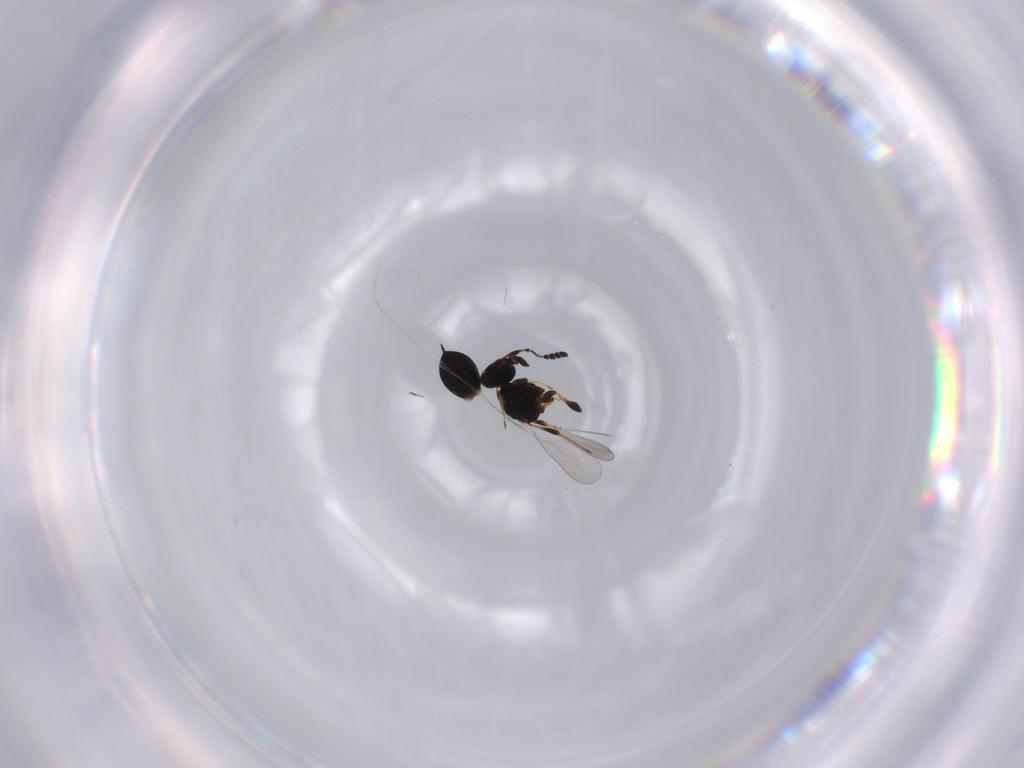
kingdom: Animalia
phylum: Arthropoda
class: Insecta
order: Hymenoptera
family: Platygastridae
